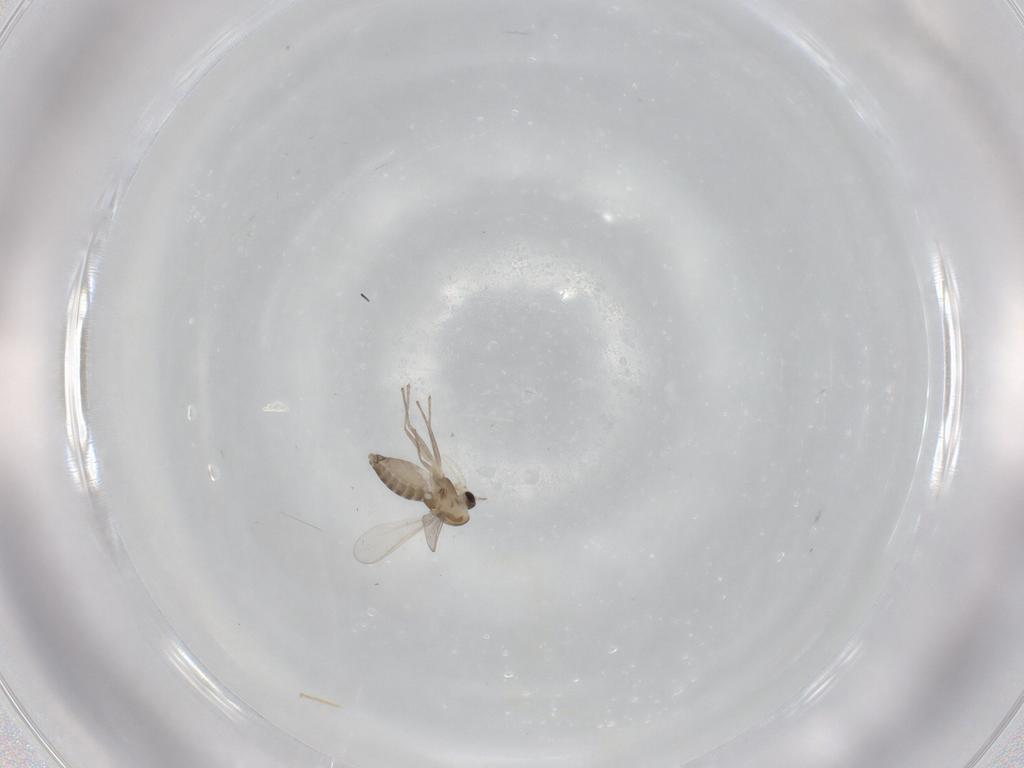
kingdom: Animalia
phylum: Arthropoda
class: Insecta
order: Diptera
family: Chironomidae
